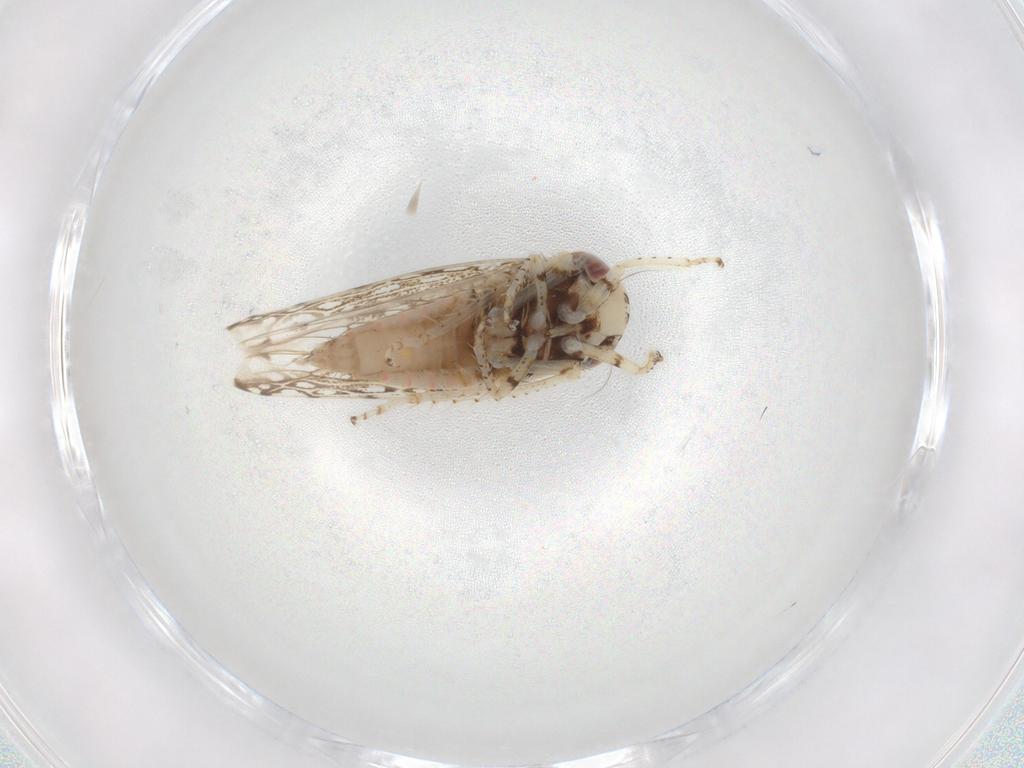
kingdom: Animalia
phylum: Arthropoda
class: Insecta
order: Hemiptera
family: Cicadellidae
